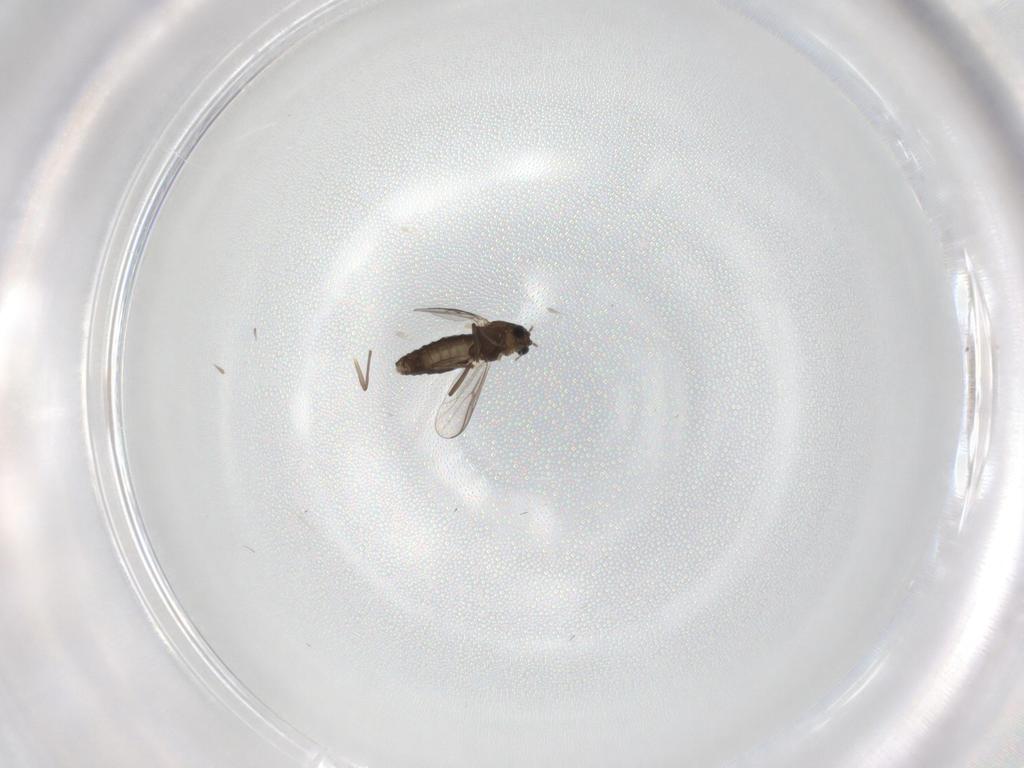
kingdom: Animalia
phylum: Arthropoda
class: Insecta
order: Diptera
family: Chironomidae
